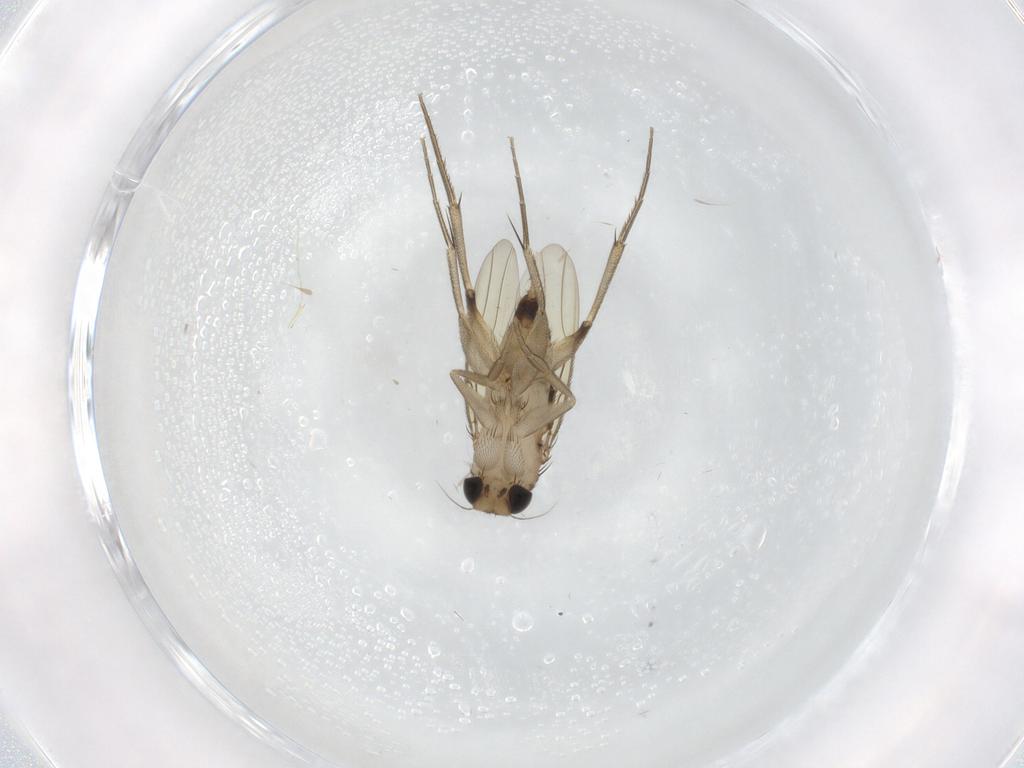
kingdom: Animalia
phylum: Arthropoda
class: Insecta
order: Diptera
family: Phoridae
